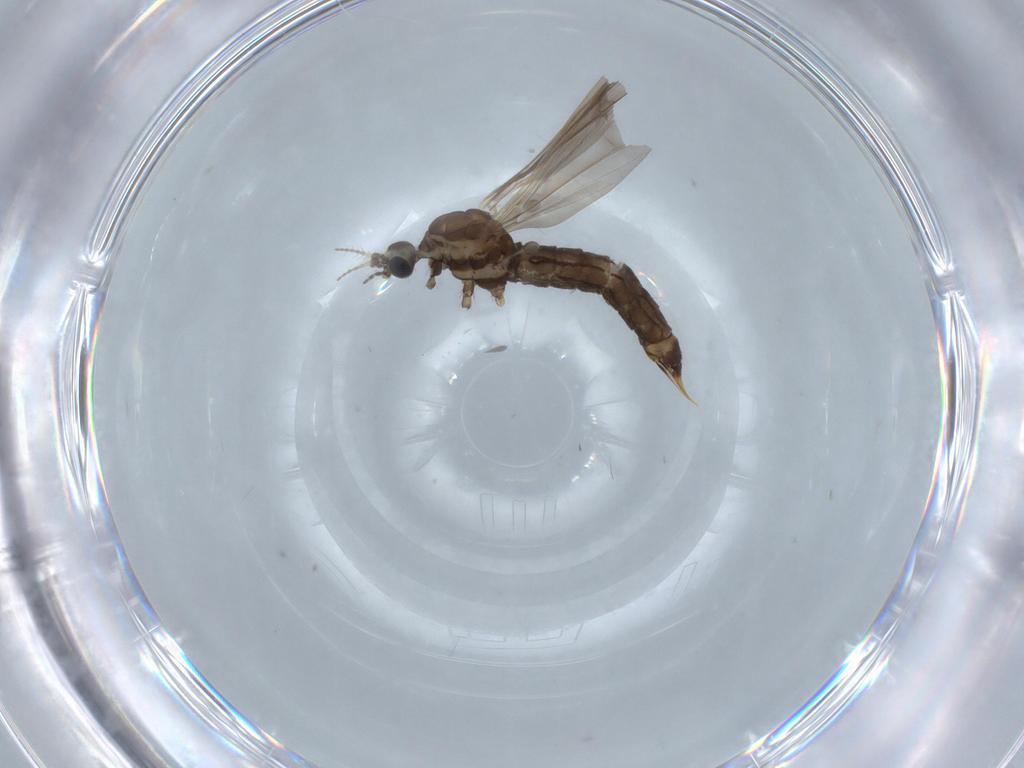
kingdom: Animalia
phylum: Arthropoda
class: Insecta
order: Diptera
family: Limoniidae
